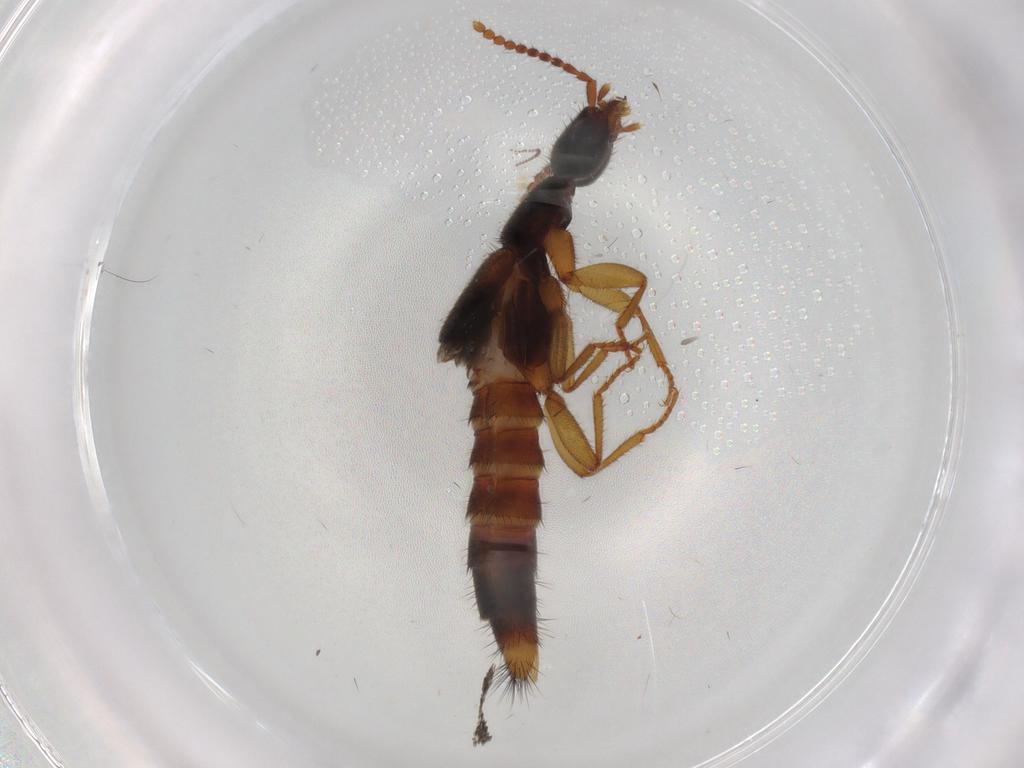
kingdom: Animalia
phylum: Arthropoda
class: Insecta
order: Coleoptera
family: Staphylinidae
